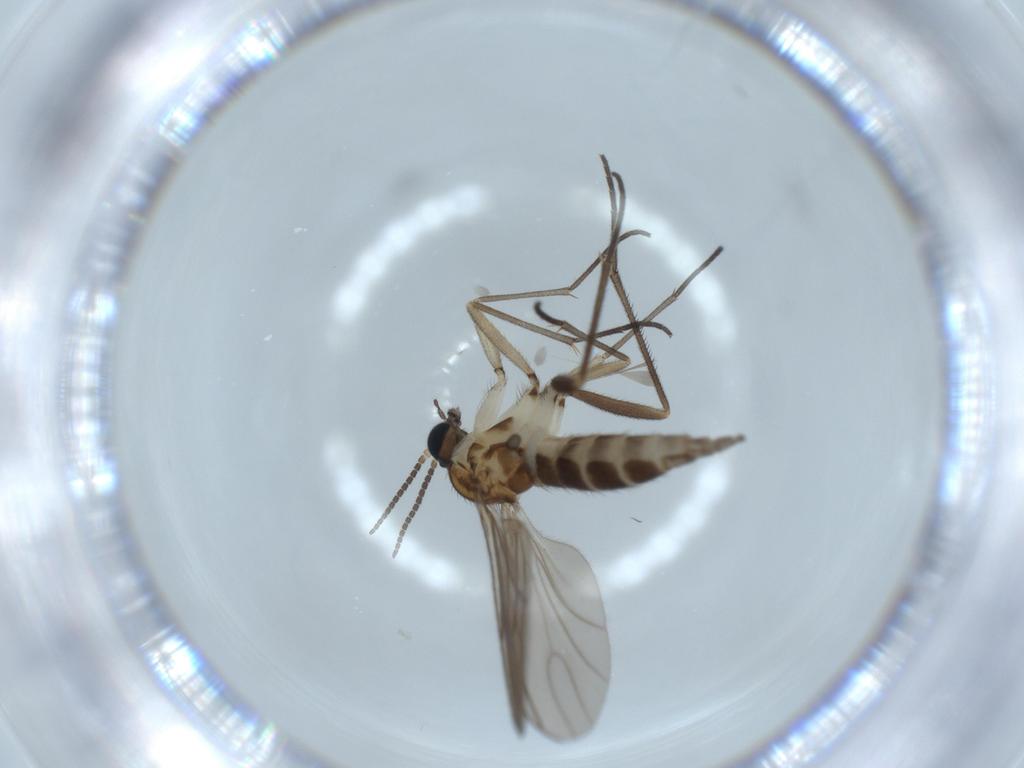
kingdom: Animalia
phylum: Arthropoda
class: Insecta
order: Diptera
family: Sciaridae
